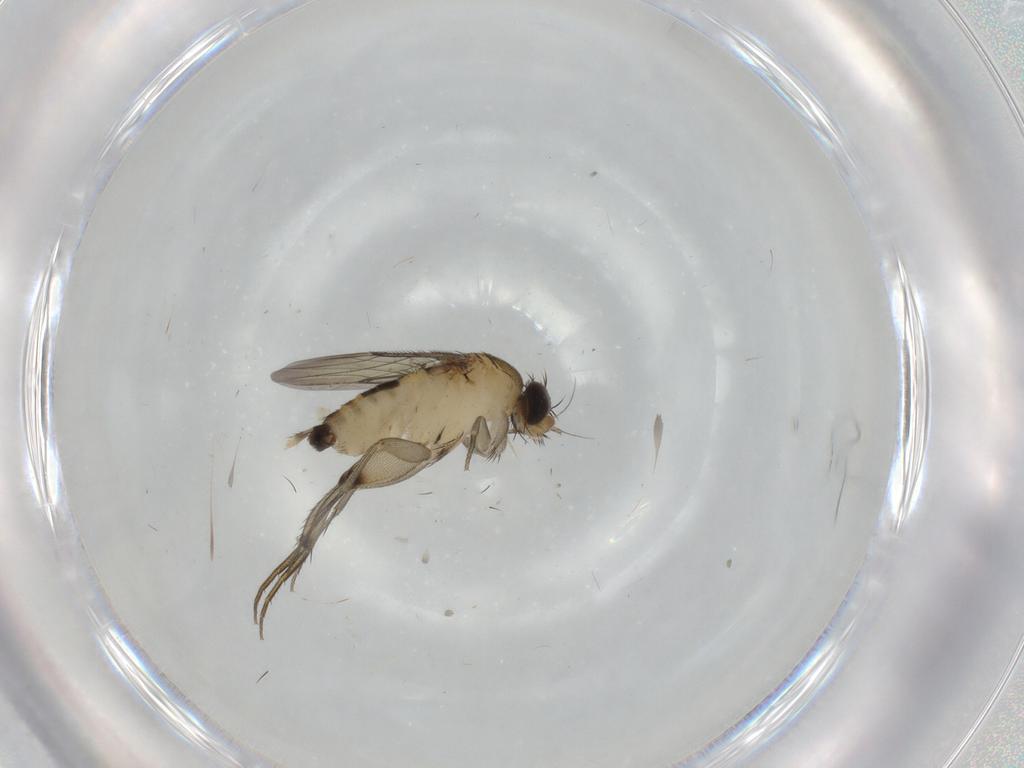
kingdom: Animalia
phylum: Arthropoda
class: Insecta
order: Diptera
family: Phoridae
